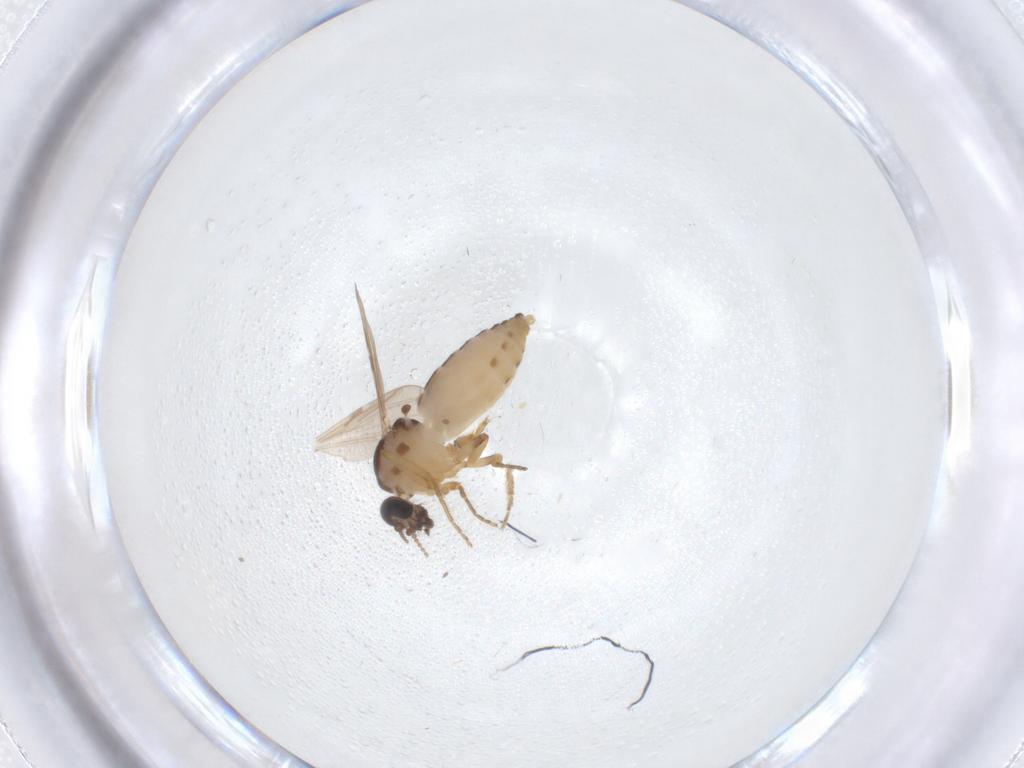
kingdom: Animalia
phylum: Arthropoda
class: Insecta
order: Diptera
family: Ceratopogonidae
